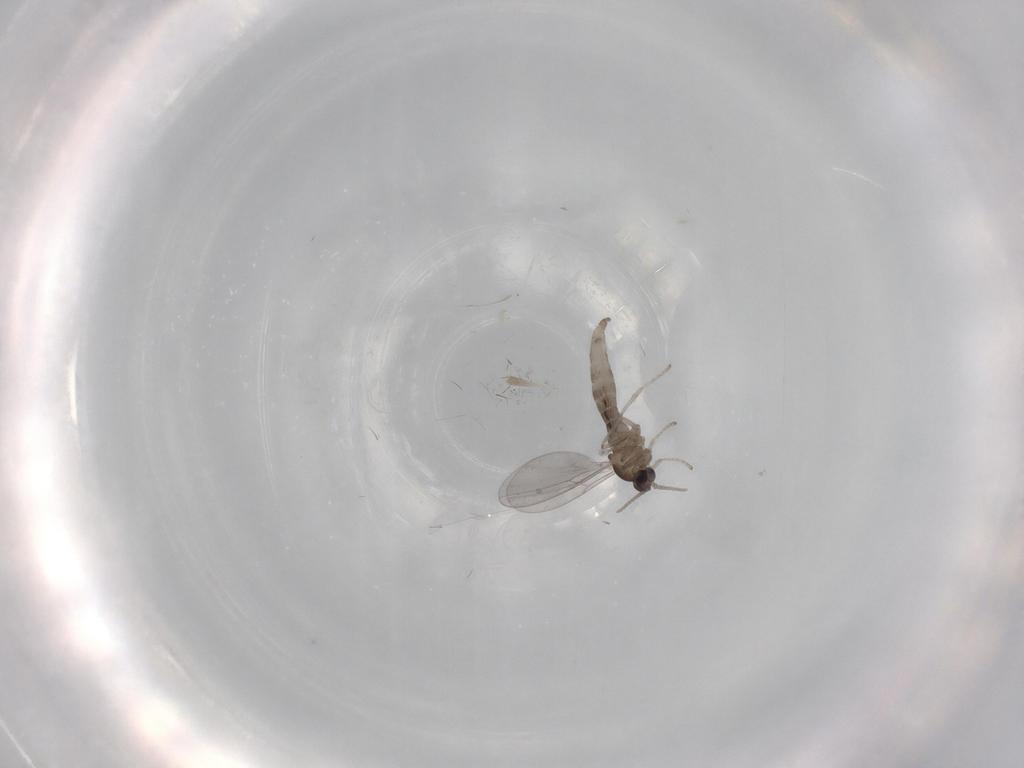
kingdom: Animalia
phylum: Arthropoda
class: Insecta
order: Diptera
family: Cecidomyiidae
